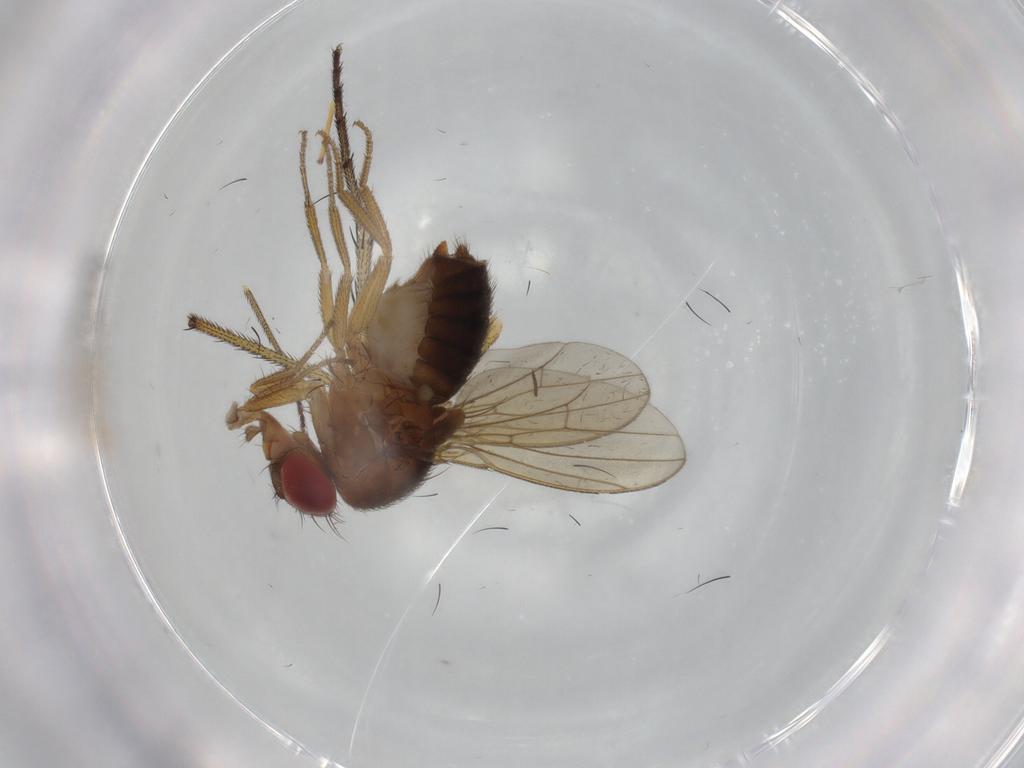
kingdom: Animalia
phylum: Arthropoda
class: Insecta
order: Diptera
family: Drosophilidae
